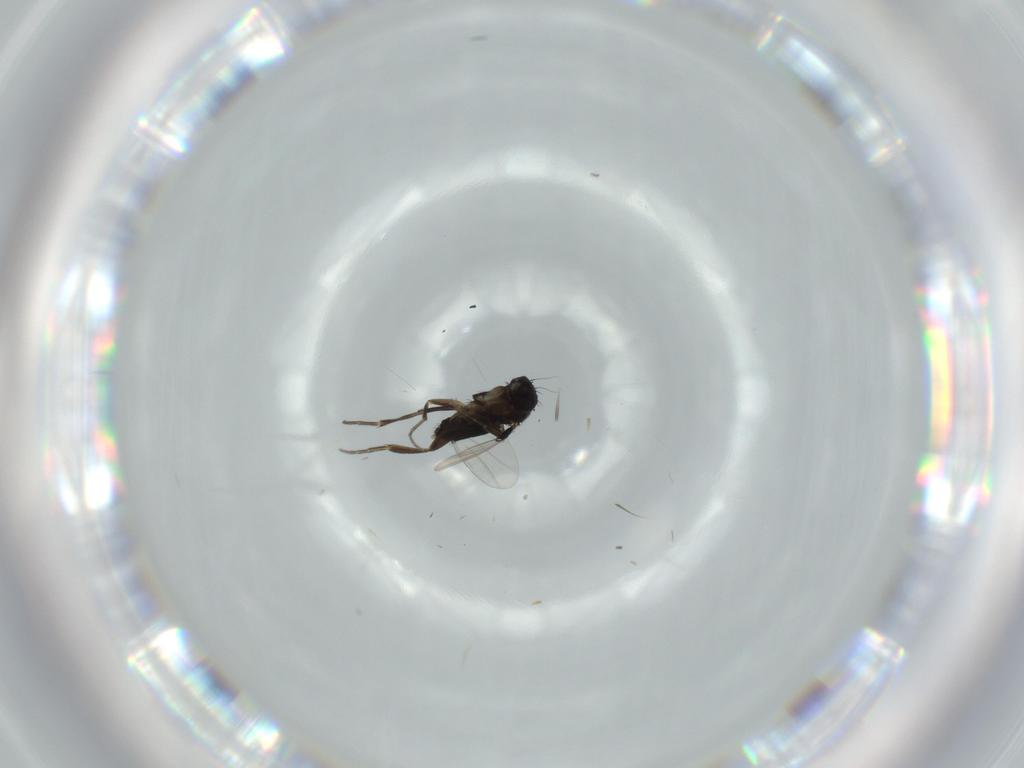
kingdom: Animalia
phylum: Arthropoda
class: Insecta
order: Diptera
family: Phoridae
